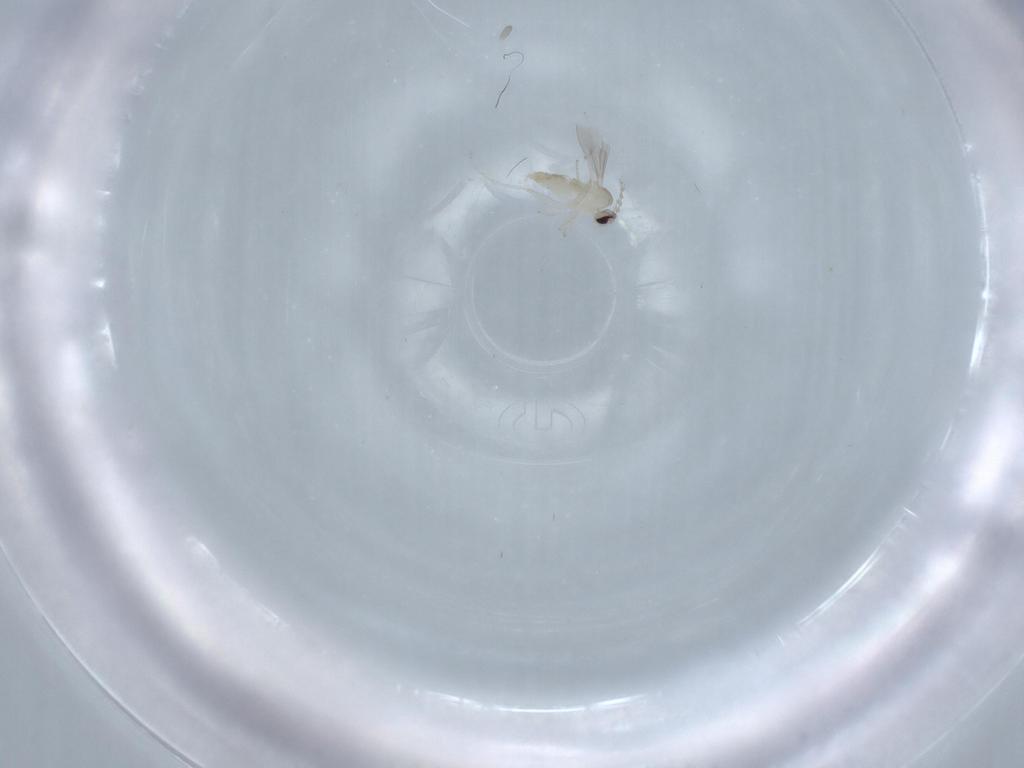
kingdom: Animalia
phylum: Arthropoda
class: Insecta
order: Diptera
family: Cecidomyiidae
